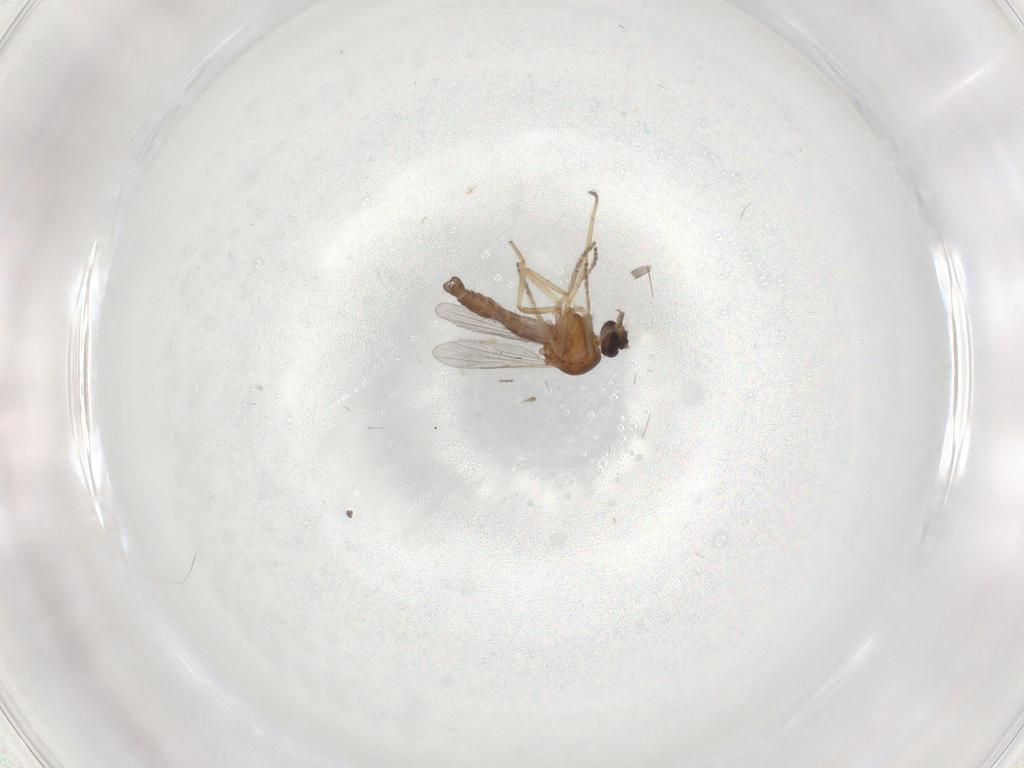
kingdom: Animalia
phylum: Arthropoda
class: Insecta
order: Diptera
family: Ceratopogonidae
